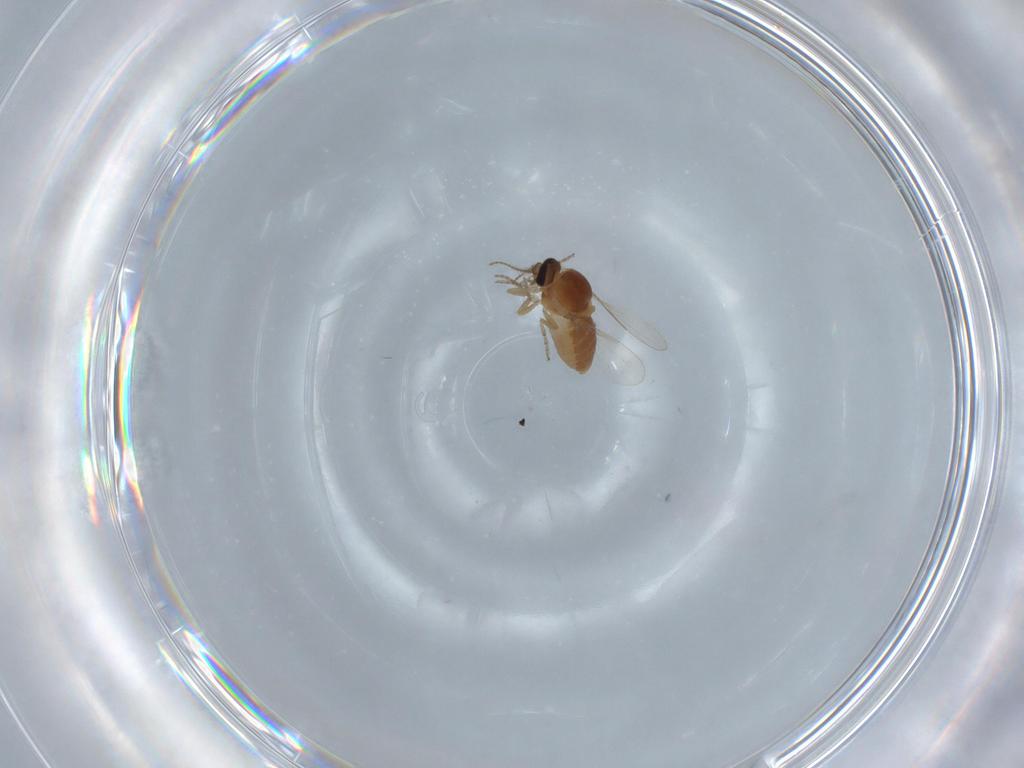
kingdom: Animalia
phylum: Arthropoda
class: Insecta
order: Diptera
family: Ceratopogonidae
